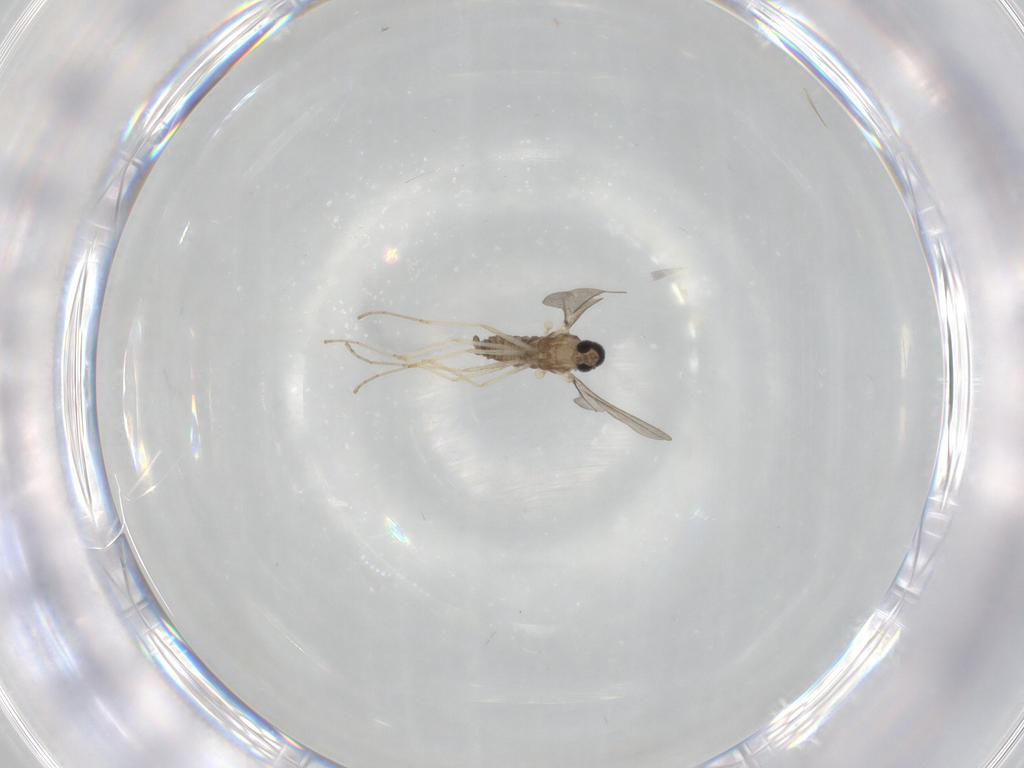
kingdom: Animalia
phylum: Arthropoda
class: Insecta
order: Diptera
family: Cecidomyiidae
